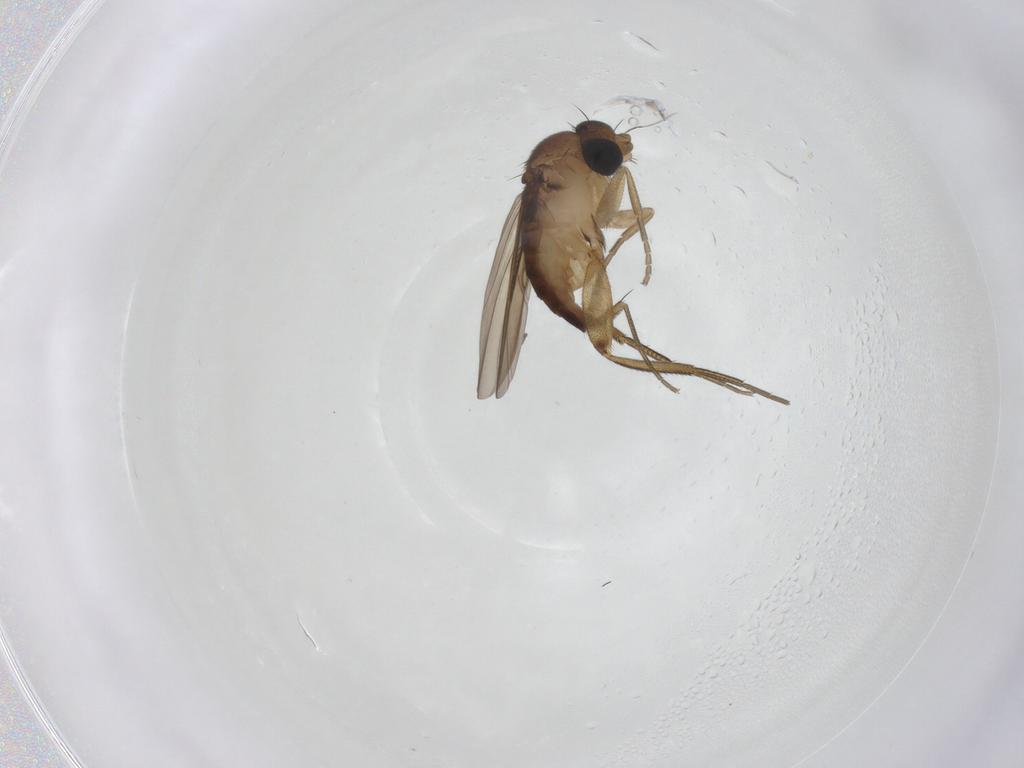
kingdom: Animalia
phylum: Arthropoda
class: Insecta
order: Diptera
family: Phoridae
